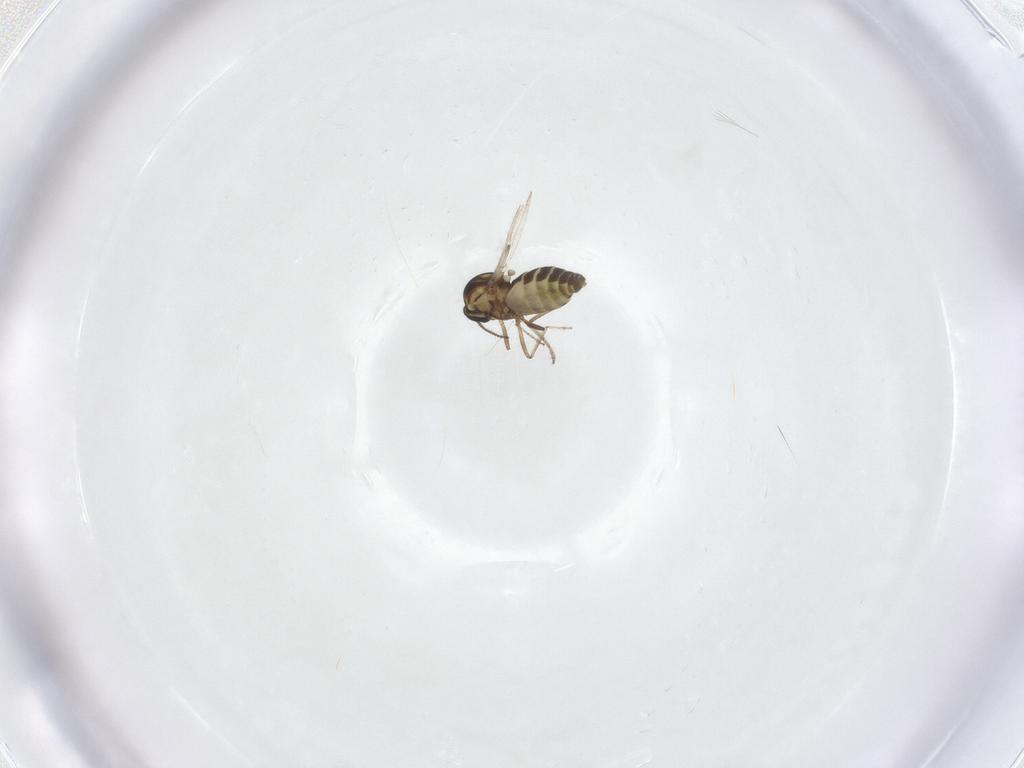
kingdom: Animalia
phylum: Arthropoda
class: Insecta
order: Diptera
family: Ceratopogonidae
